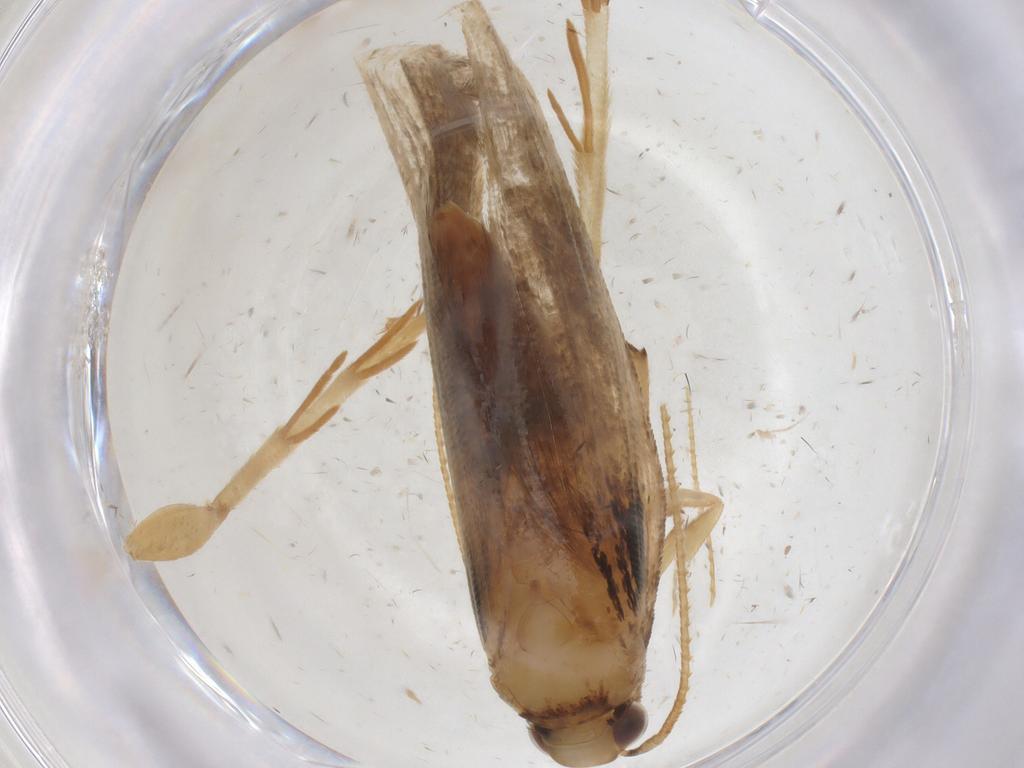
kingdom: Animalia
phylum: Arthropoda
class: Insecta
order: Lepidoptera
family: Gelechiidae
